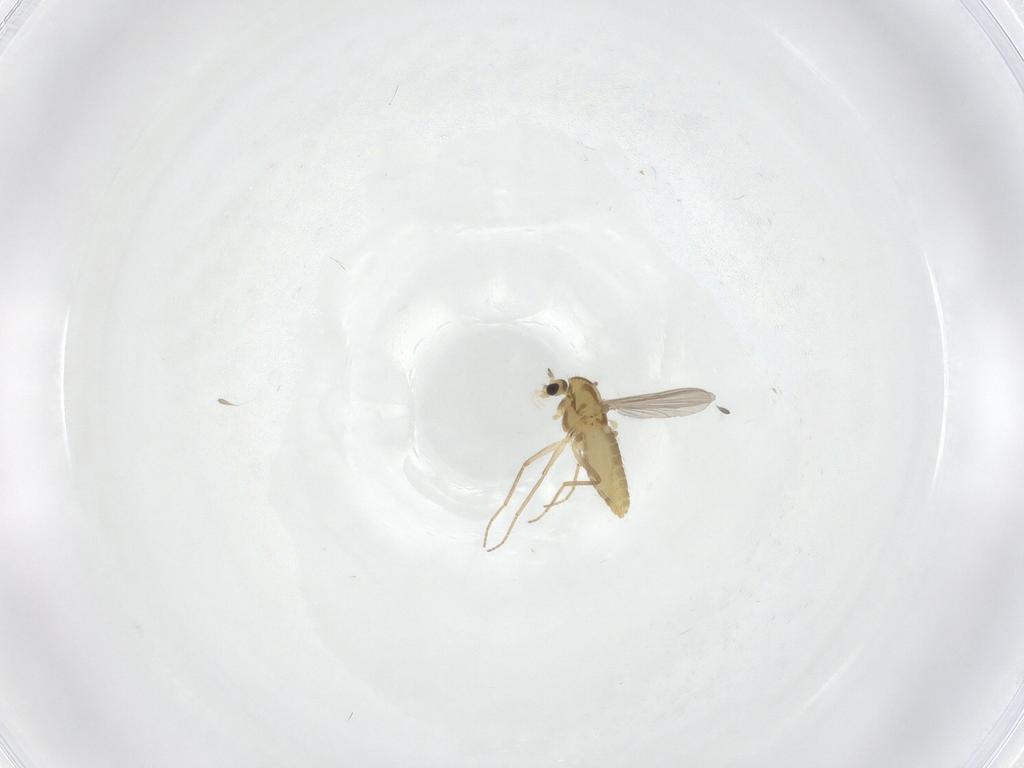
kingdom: Animalia
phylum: Arthropoda
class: Insecta
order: Diptera
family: Chironomidae
